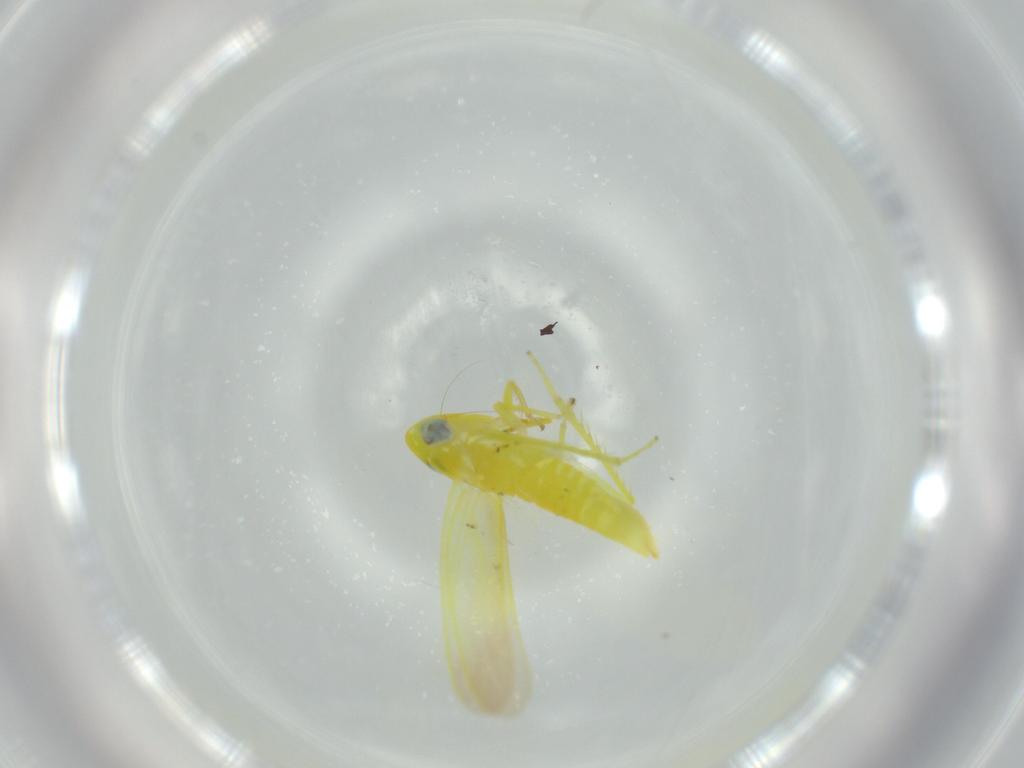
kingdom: Animalia
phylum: Arthropoda
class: Insecta
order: Hemiptera
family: Cicadellidae
